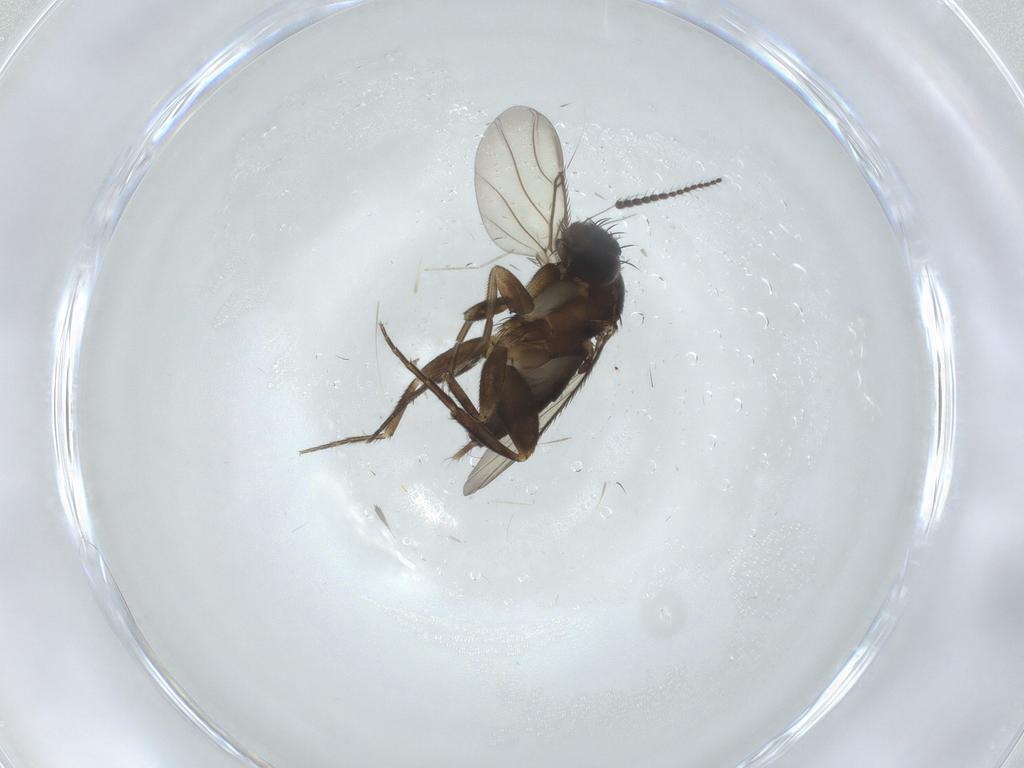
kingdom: Animalia
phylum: Arthropoda
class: Insecta
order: Diptera
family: Phoridae
